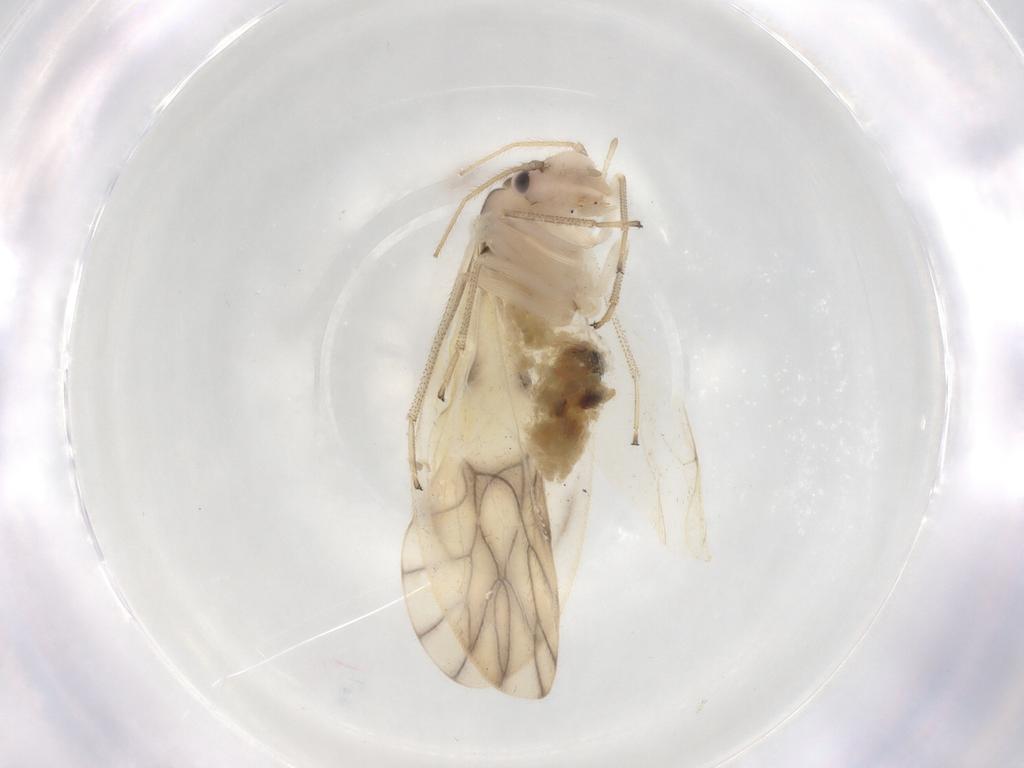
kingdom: Animalia
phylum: Arthropoda
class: Insecta
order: Psocodea
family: Caeciliusidae
